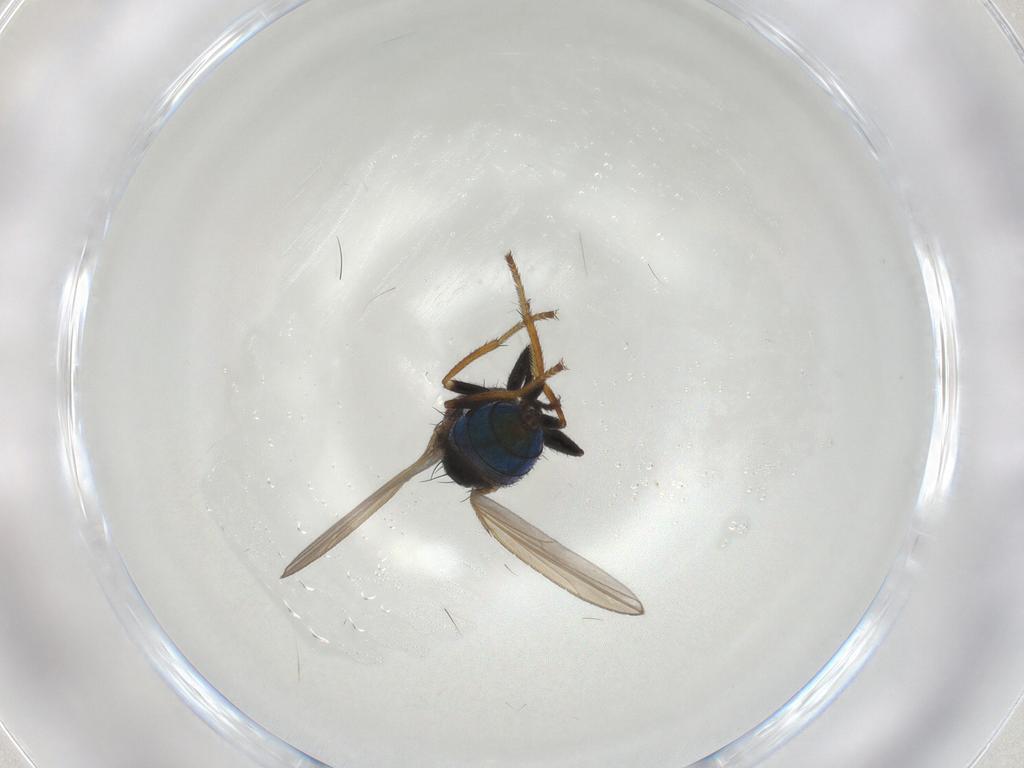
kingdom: Animalia
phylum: Arthropoda
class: Insecta
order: Diptera
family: Ephydridae
